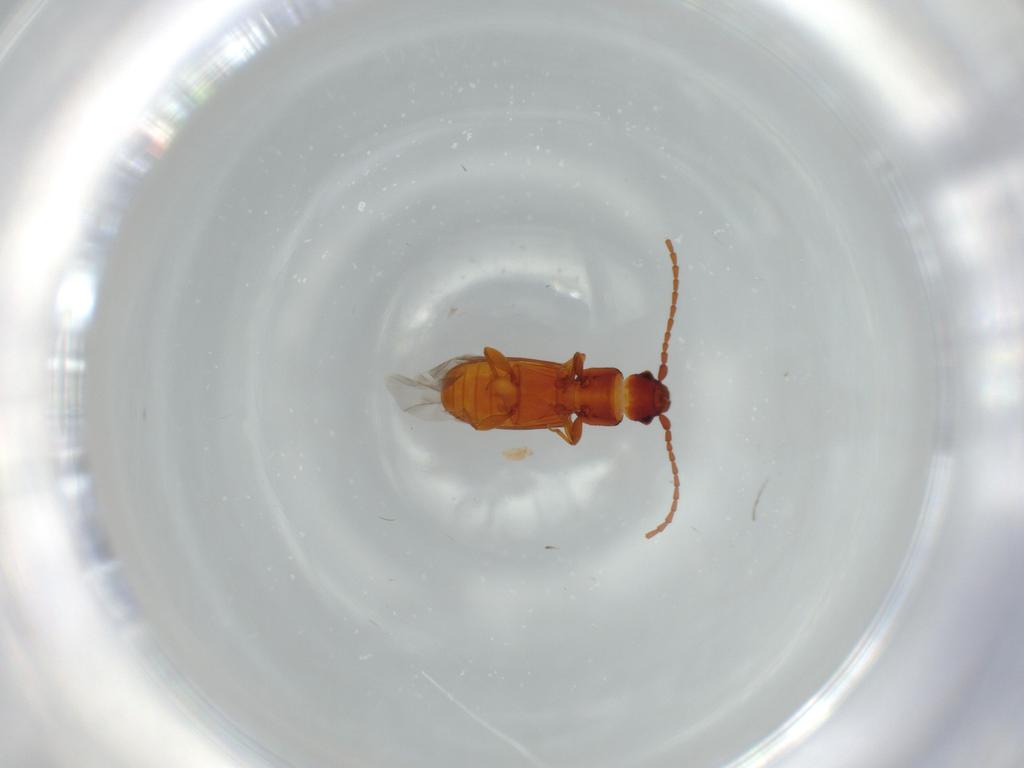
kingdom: Animalia
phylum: Arthropoda
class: Insecta
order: Coleoptera
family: Laemophloeidae
